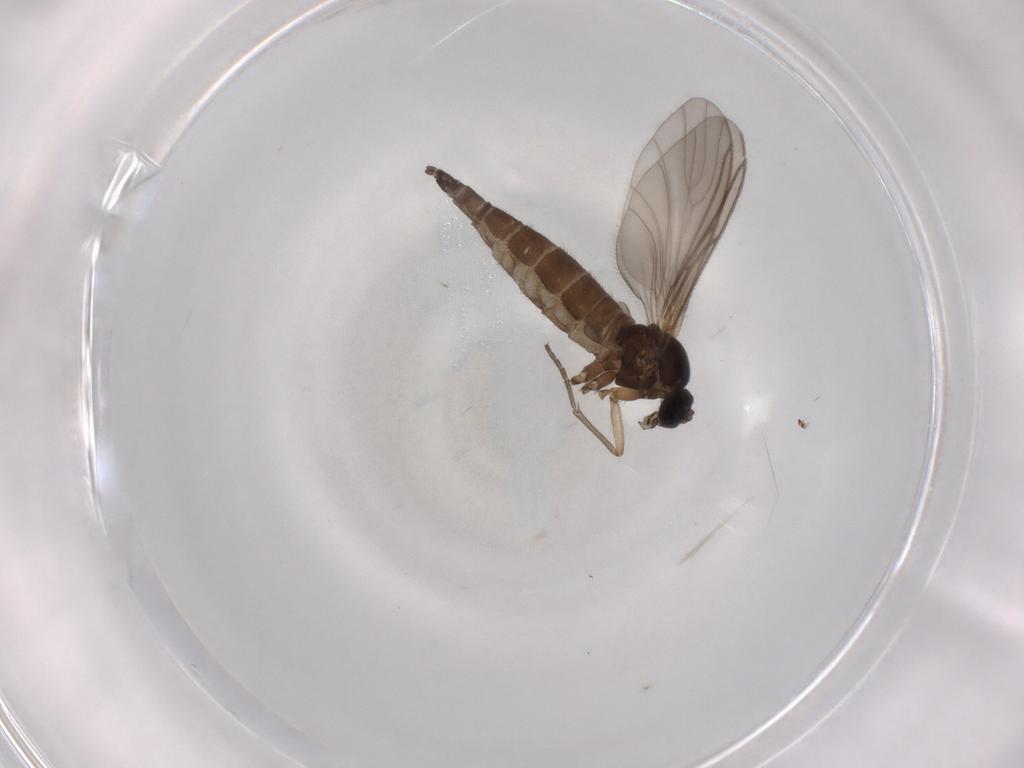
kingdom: Animalia
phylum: Arthropoda
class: Insecta
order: Diptera
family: Sciaridae
